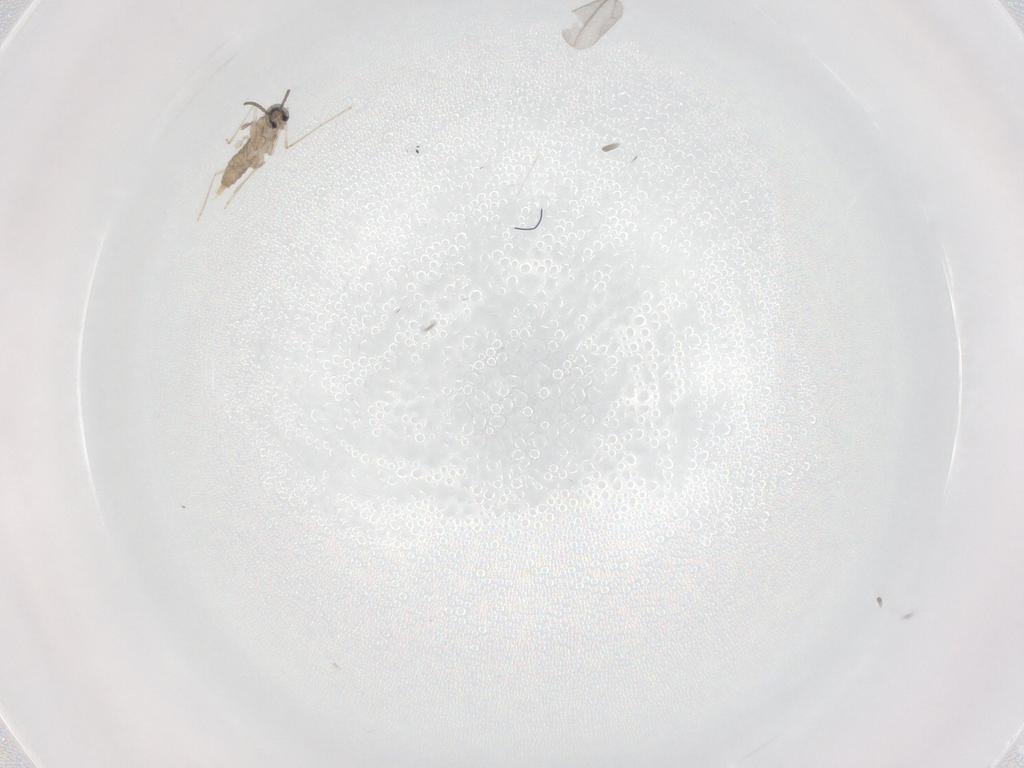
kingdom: Animalia
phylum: Arthropoda
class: Insecta
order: Diptera
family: Cecidomyiidae
